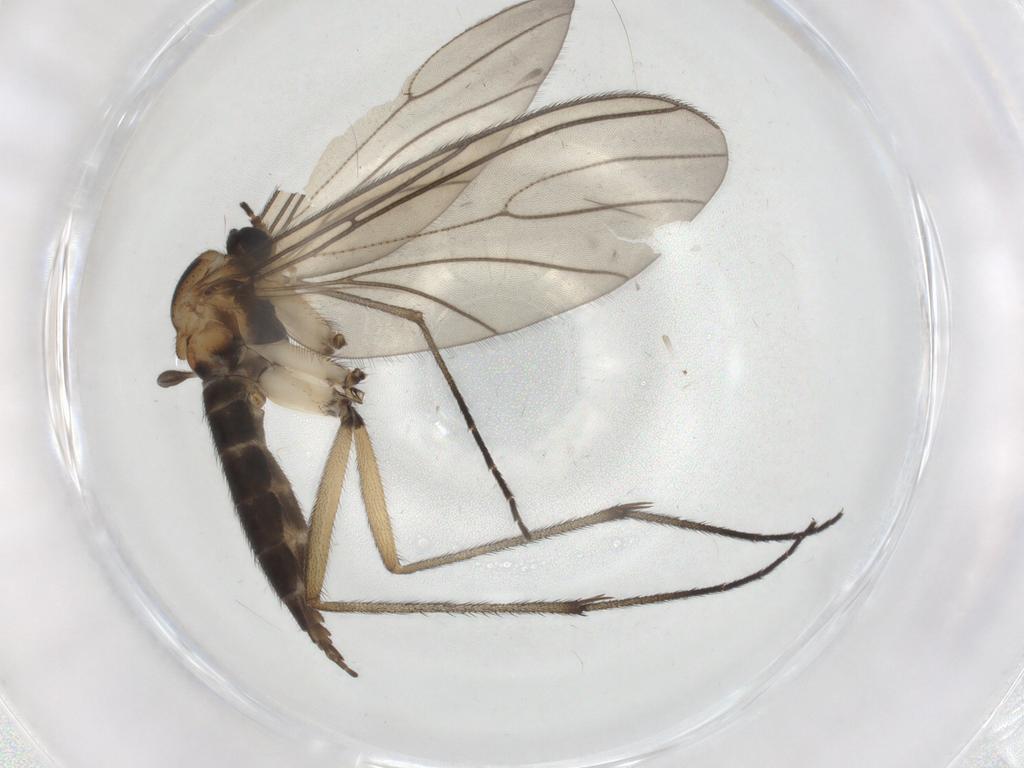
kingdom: Animalia
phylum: Arthropoda
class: Insecta
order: Diptera
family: Sciaridae
